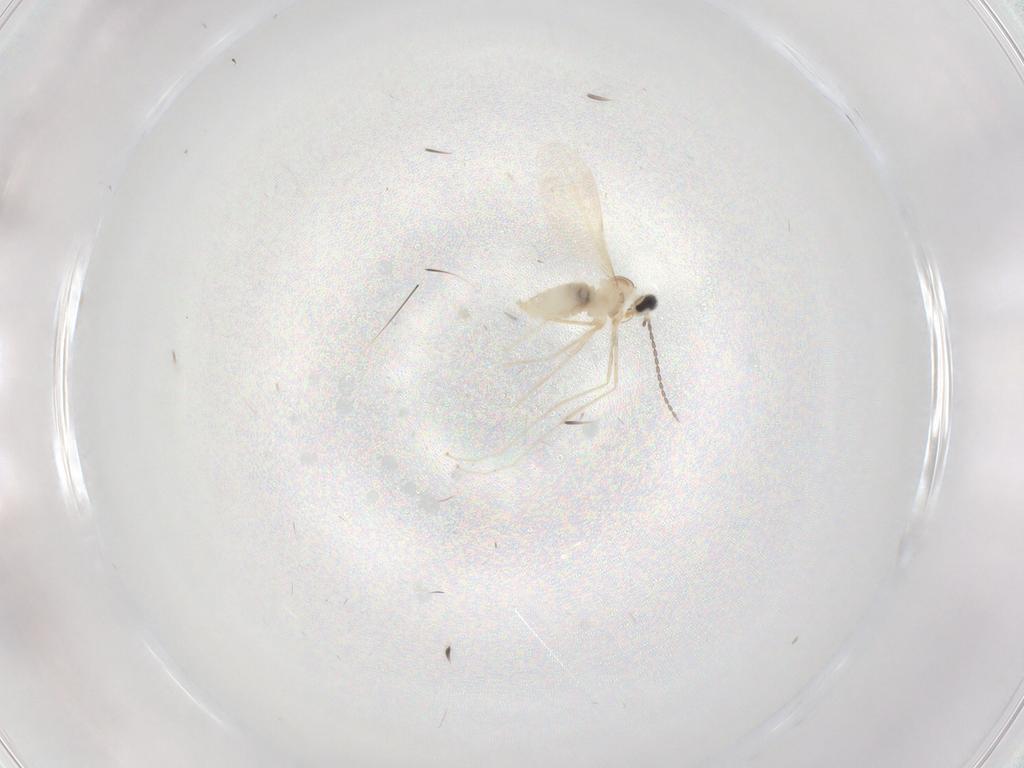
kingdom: Animalia
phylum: Arthropoda
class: Insecta
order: Diptera
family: Cecidomyiidae
